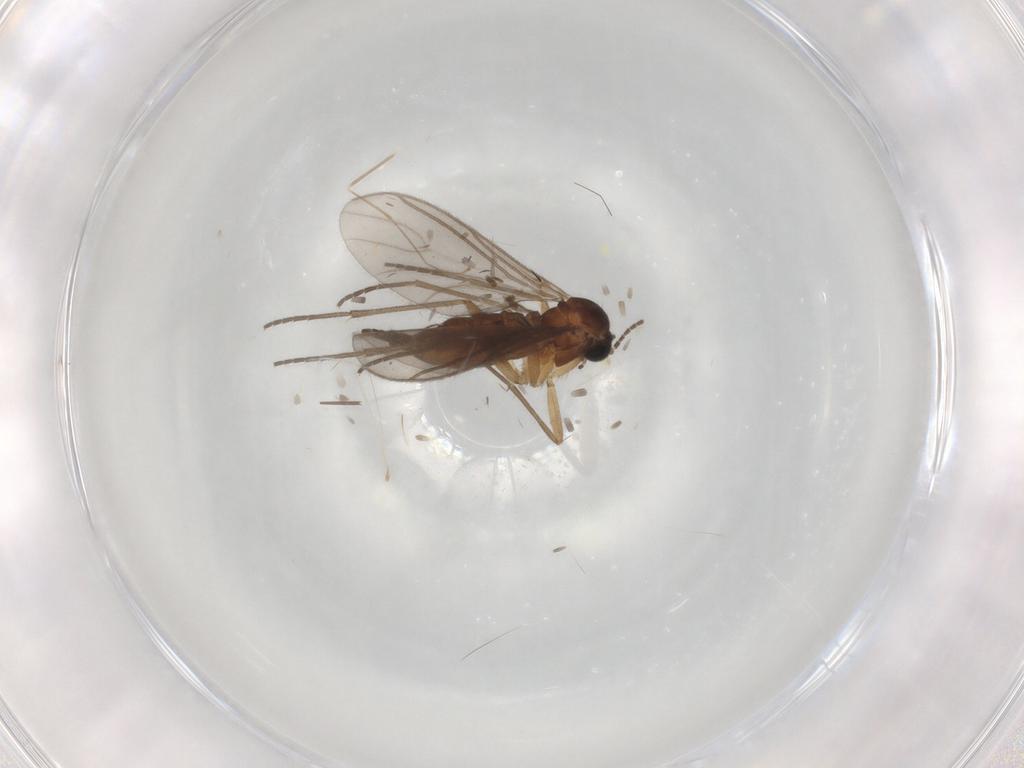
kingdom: Animalia
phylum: Arthropoda
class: Insecta
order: Diptera
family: Sciaridae
